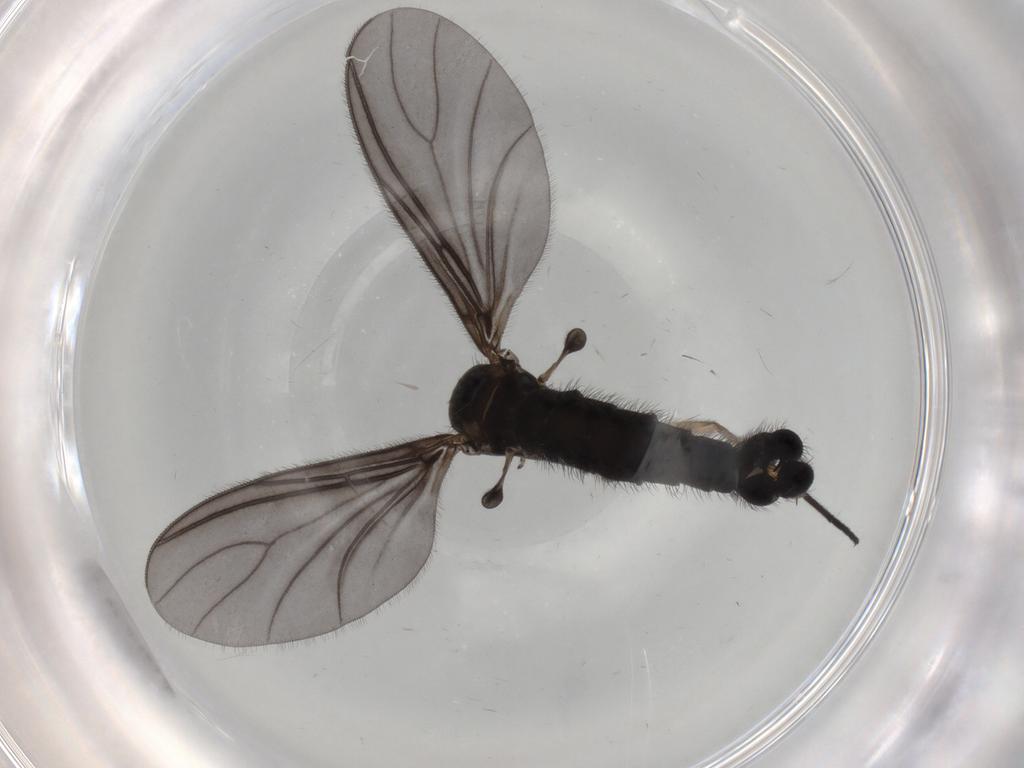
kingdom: Animalia
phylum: Arthropoda
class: Insecta
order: Diptera
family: Sciaridae
